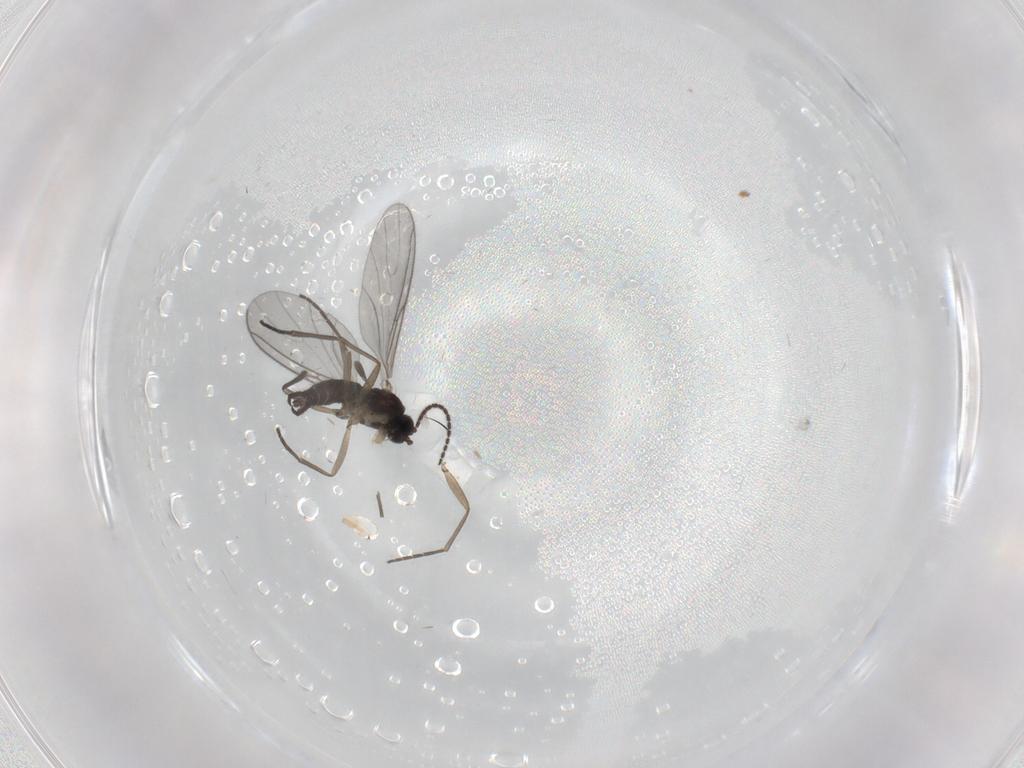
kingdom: Animalia
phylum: Arthropoda
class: Insecta
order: Diptera
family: Sciaridae
